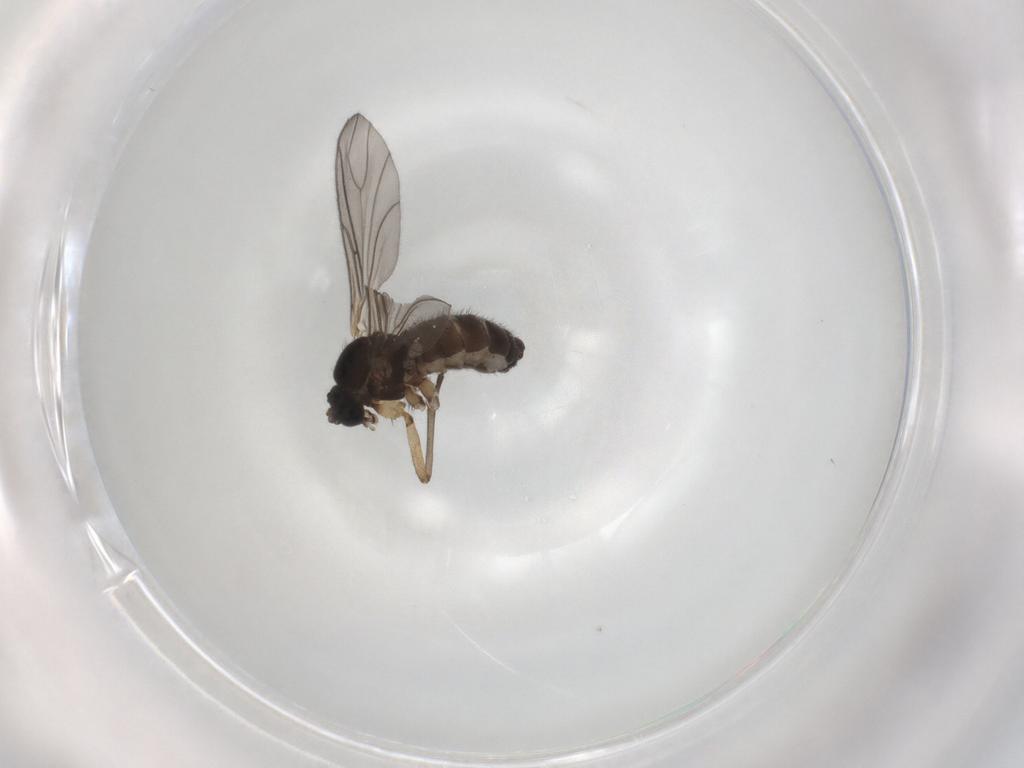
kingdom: Animalia
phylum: Arthropoda
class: Insecta
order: Diptera
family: Sciaridae
